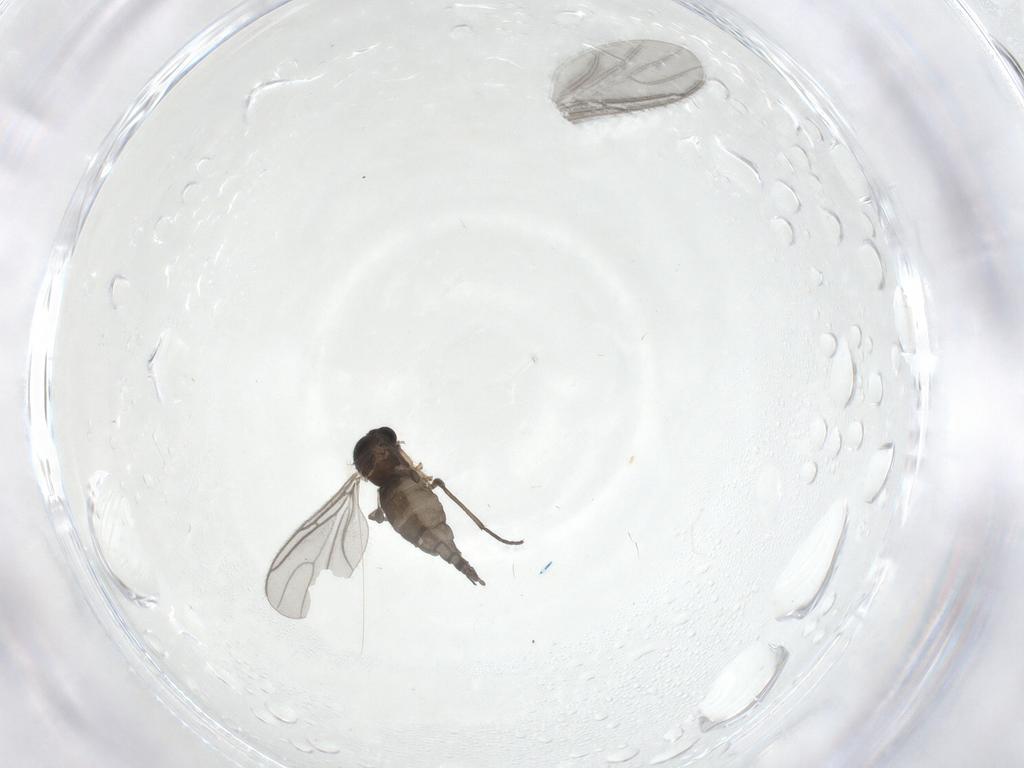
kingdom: Animalia
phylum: Arthropoda
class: Insecta
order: Diptera
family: Sciaridae
